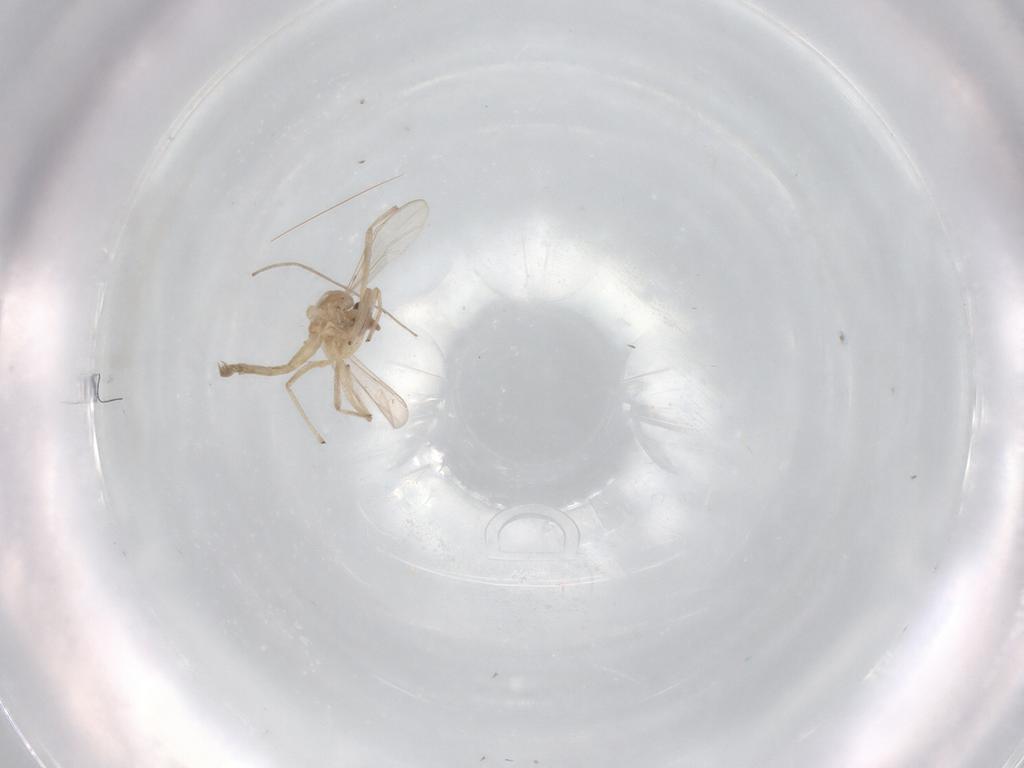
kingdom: Animalia
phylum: Arthropoda
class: Insecta
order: Diptera
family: Chironomidae
